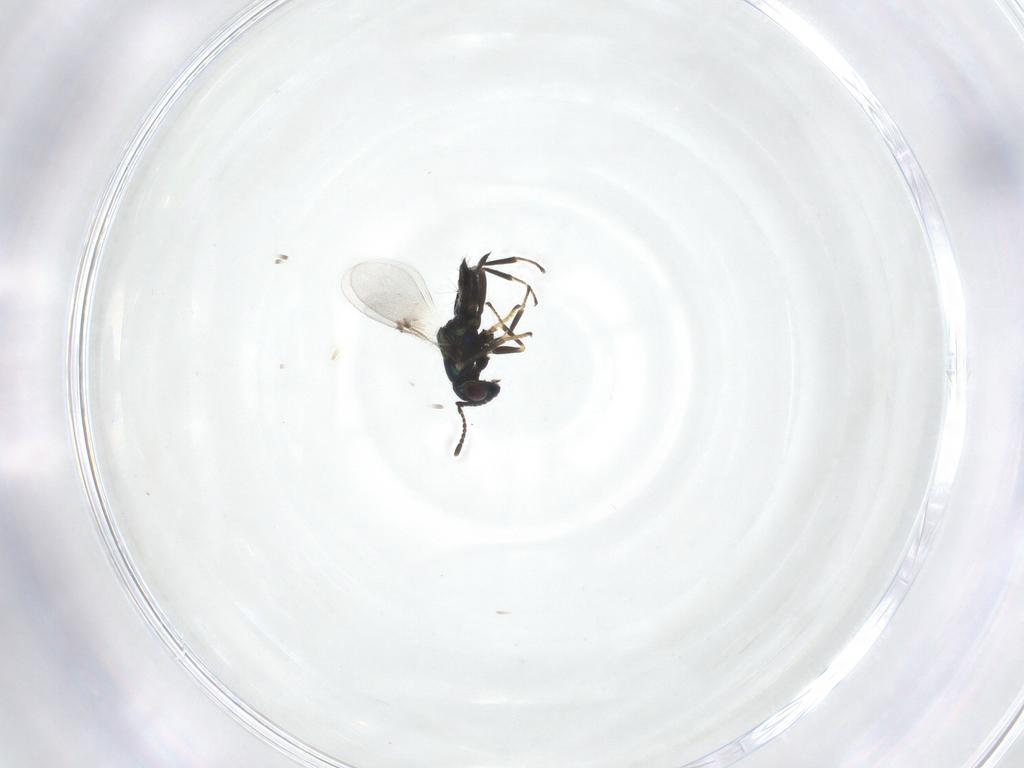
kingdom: Animalia
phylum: Arthropoda
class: Insecta
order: Hymenoptera
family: Encyrtidae
